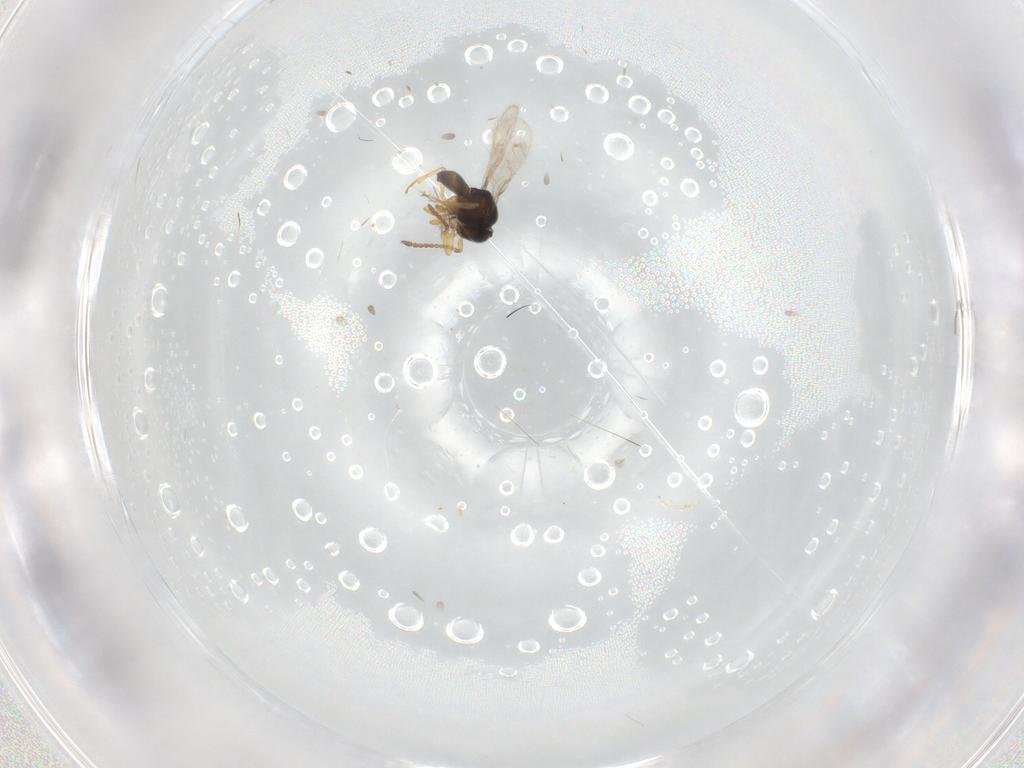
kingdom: Animalia
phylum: Arthropoda
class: Insecta
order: Hymenoptera
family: Scelionidae
